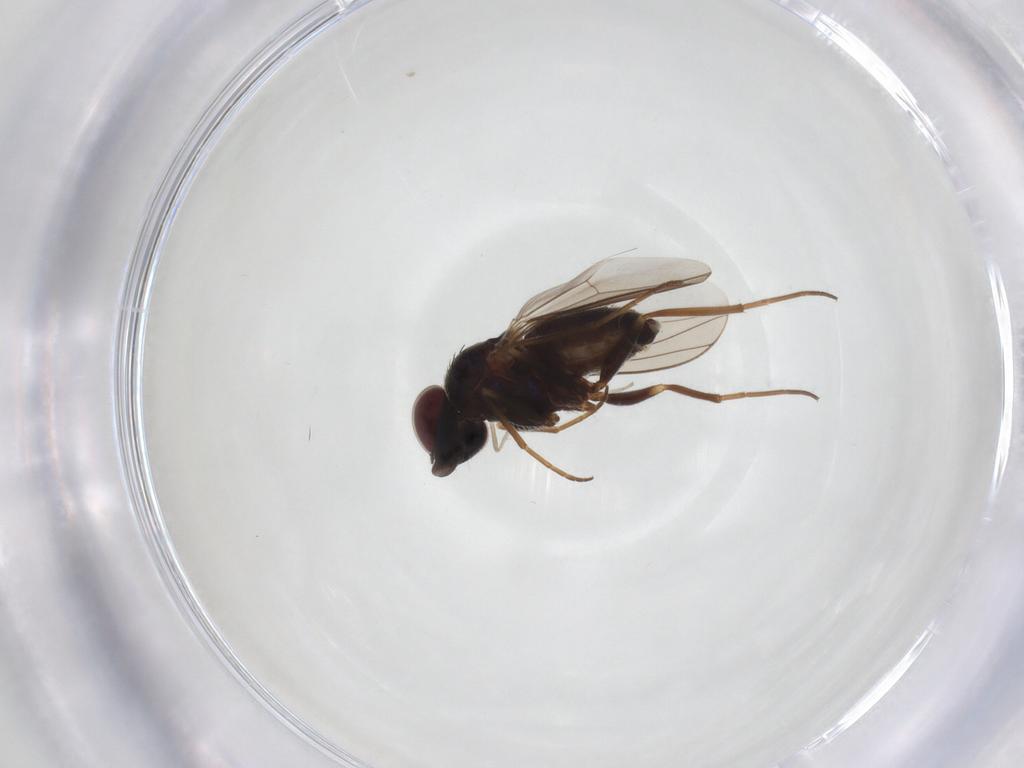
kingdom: Animalia
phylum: Arthropoda
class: Insecta
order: Diptera
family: Dolichopodidae
